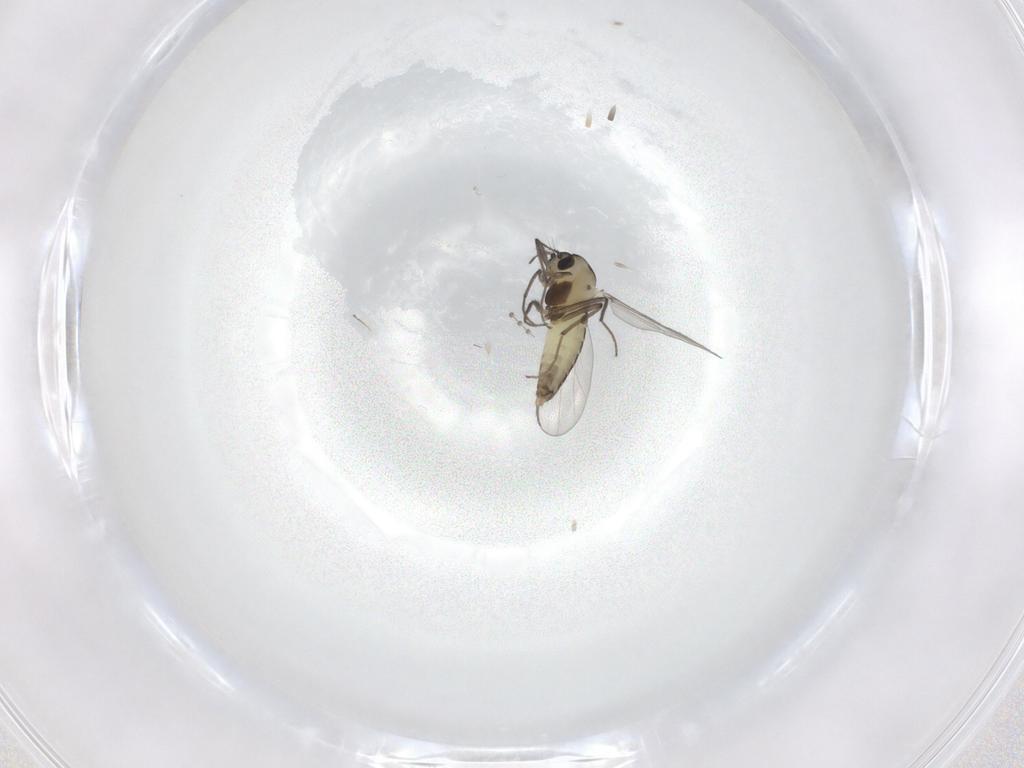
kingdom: Animalia
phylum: Arthropoda
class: Insecta
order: Diptera
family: Chironomidae
